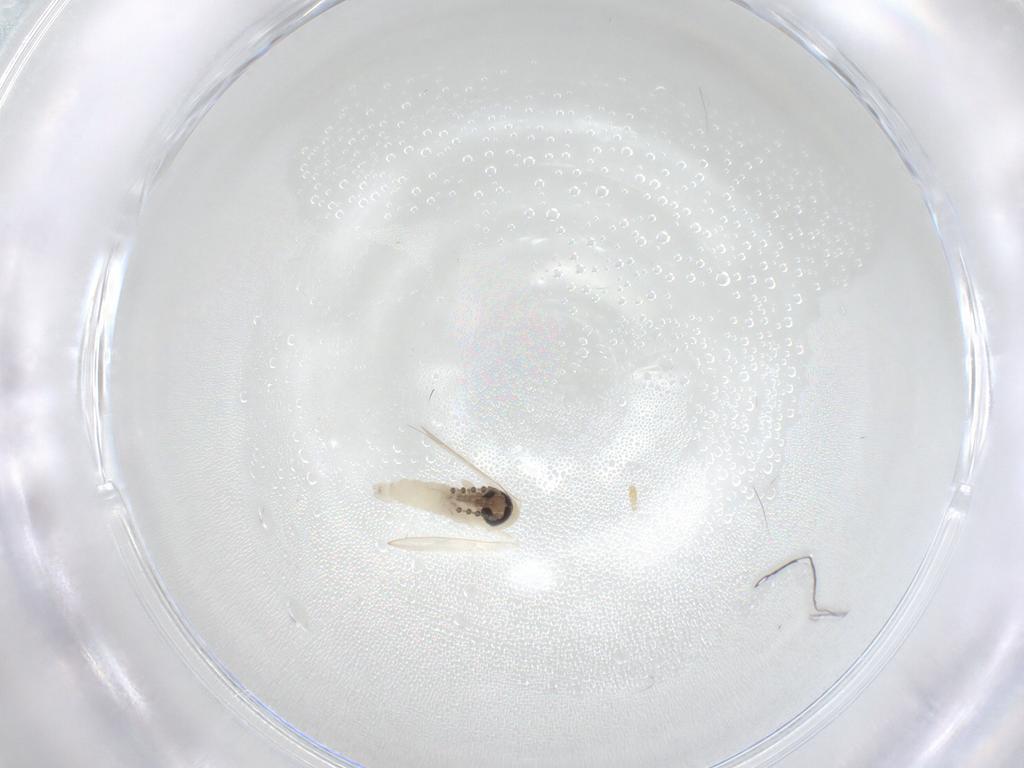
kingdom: Animalia
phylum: Arthropoda
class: Insecta
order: Diptera
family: Psychodidae
